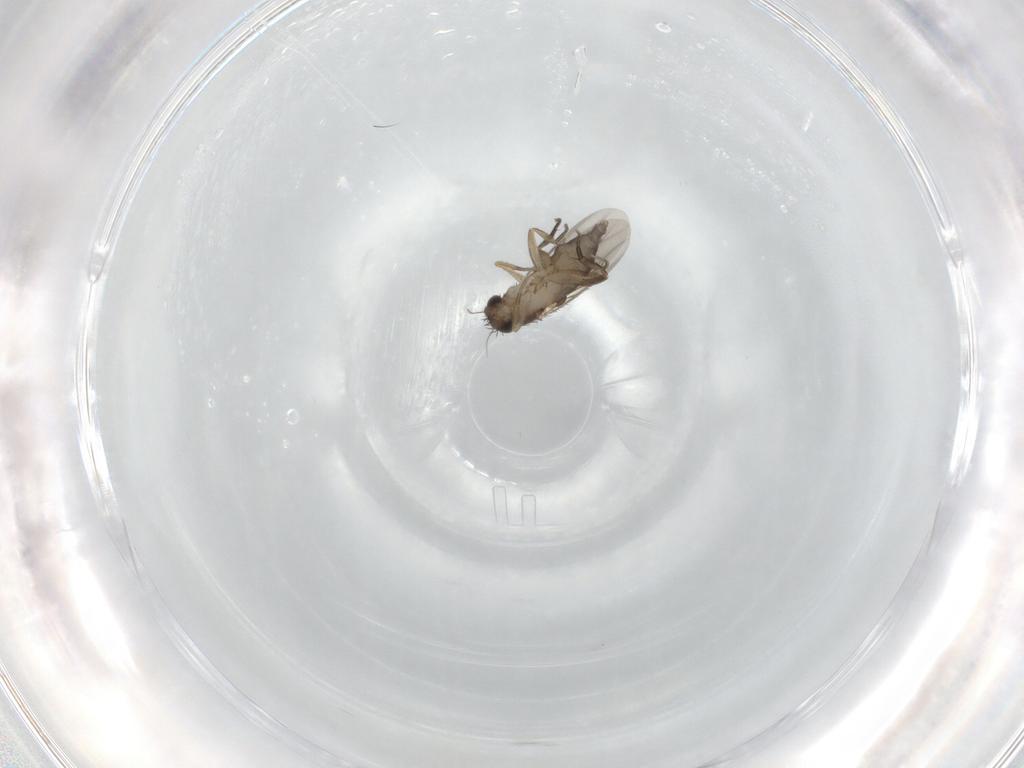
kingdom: Animalia
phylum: Arthropoda
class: Insecta
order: Diptera
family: Phoridae
